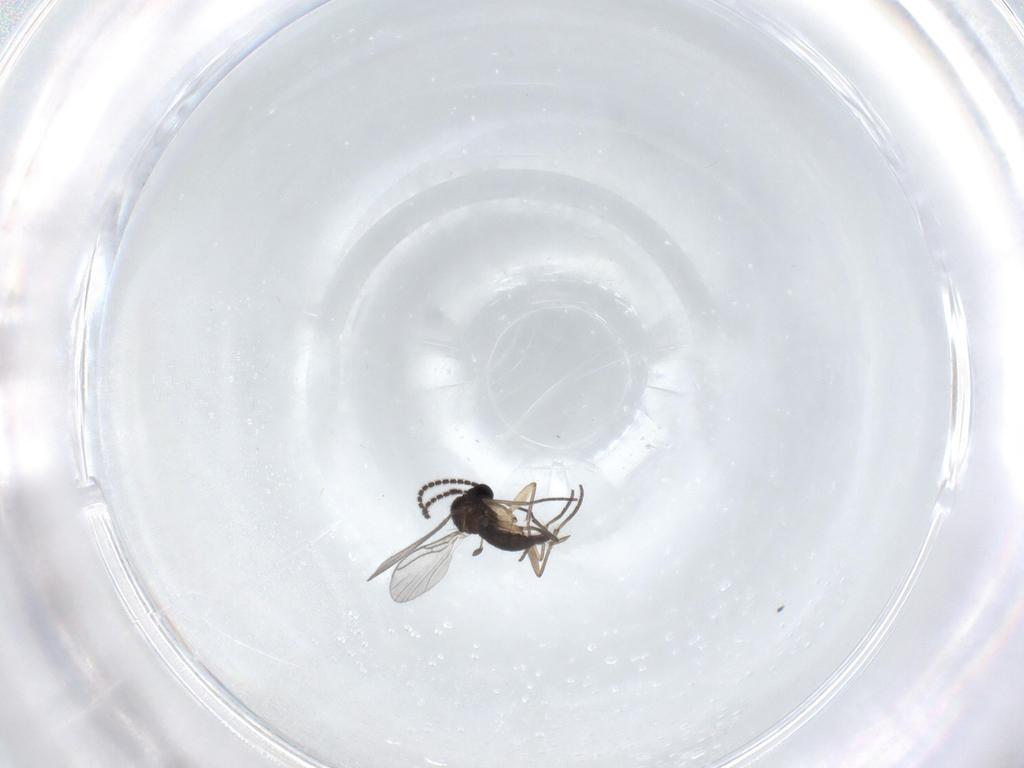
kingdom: Animalia
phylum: Arthropoda
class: Insecta
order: Diptera
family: Sciaridae
